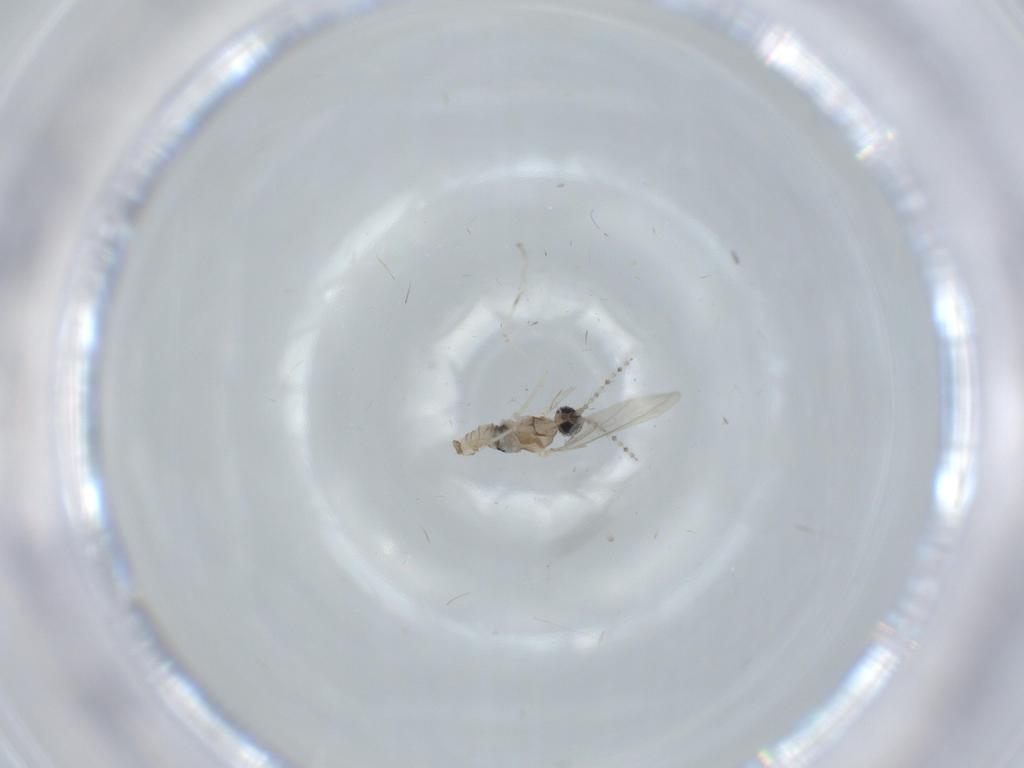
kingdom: Animalia
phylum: Arthropoda
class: Insecta
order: Diptera
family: Cecidomyiidae
